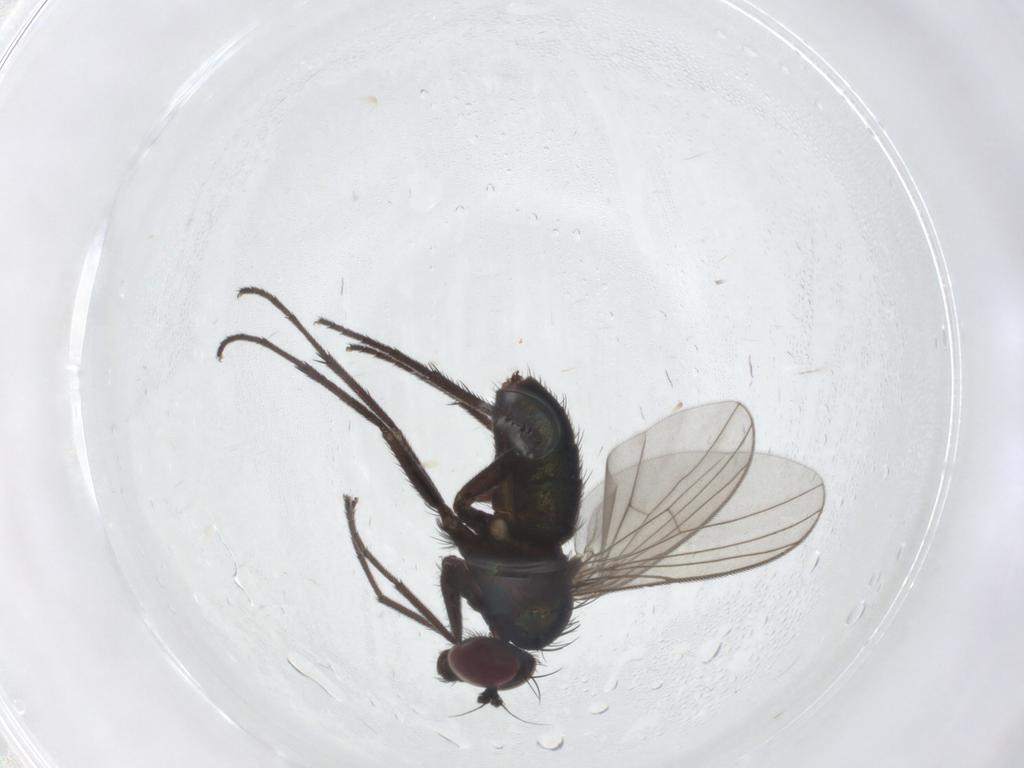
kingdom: Animalia
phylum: Arthropoda
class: Insecta
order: Diptera
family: Dolichopodidae
